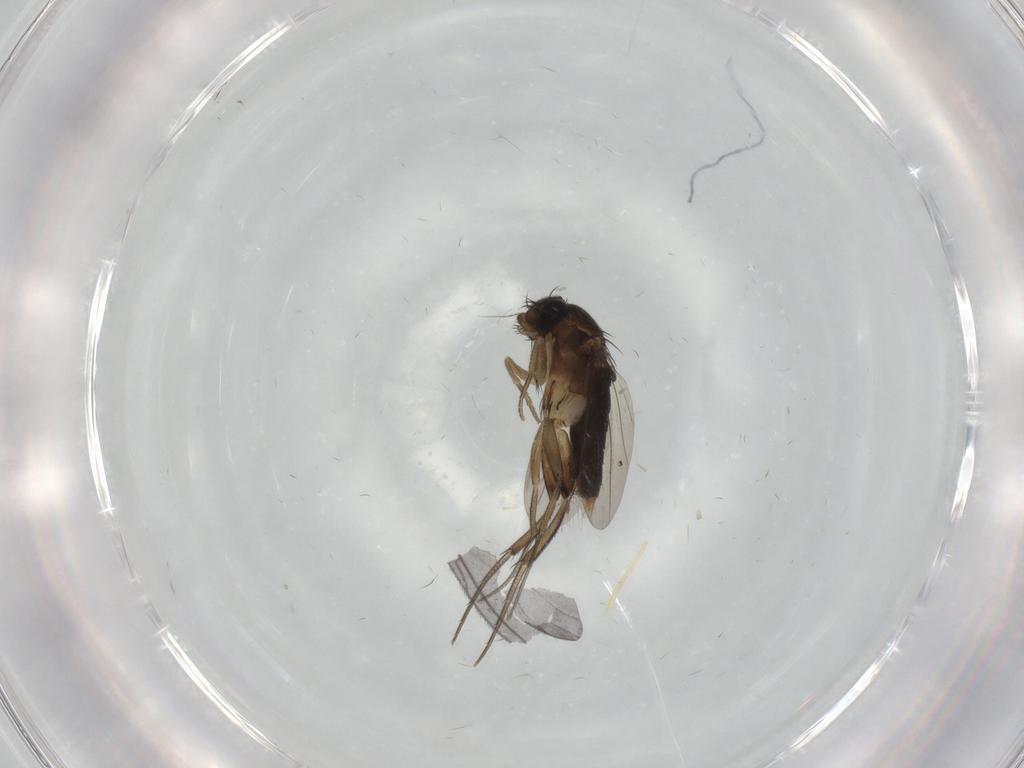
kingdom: Animalia
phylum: Arthropoda
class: Insecta
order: Diptera
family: Phoridae
